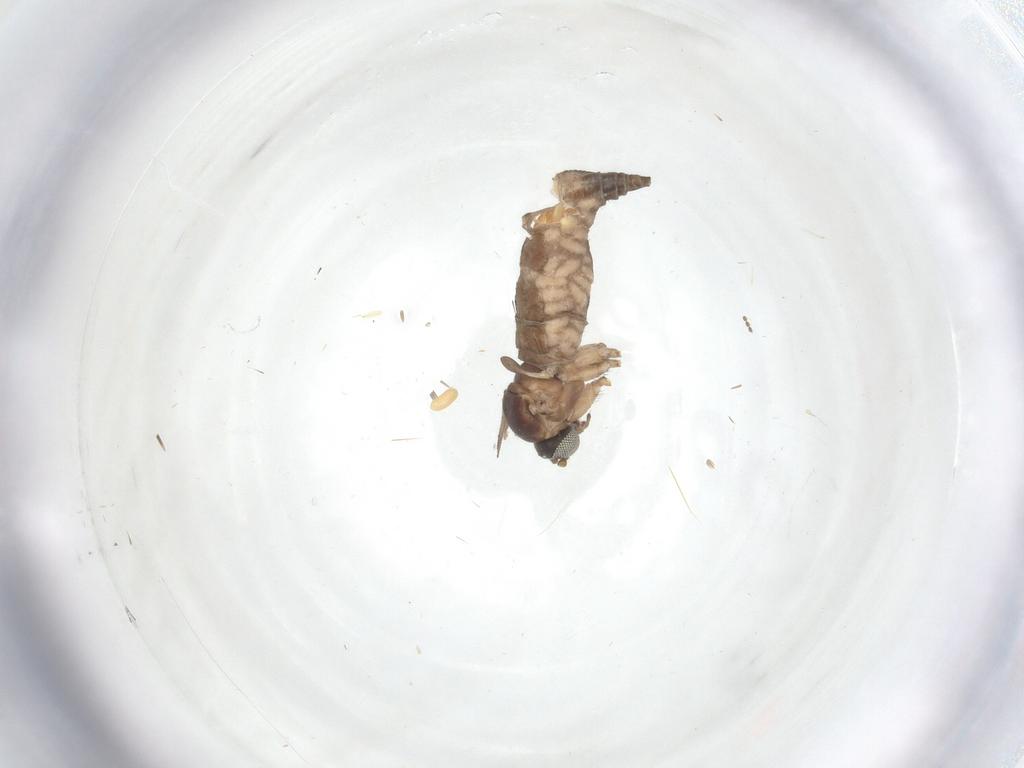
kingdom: Animalia
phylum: Arthropoda
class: Insecta
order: Diptera
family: Sciaridae
